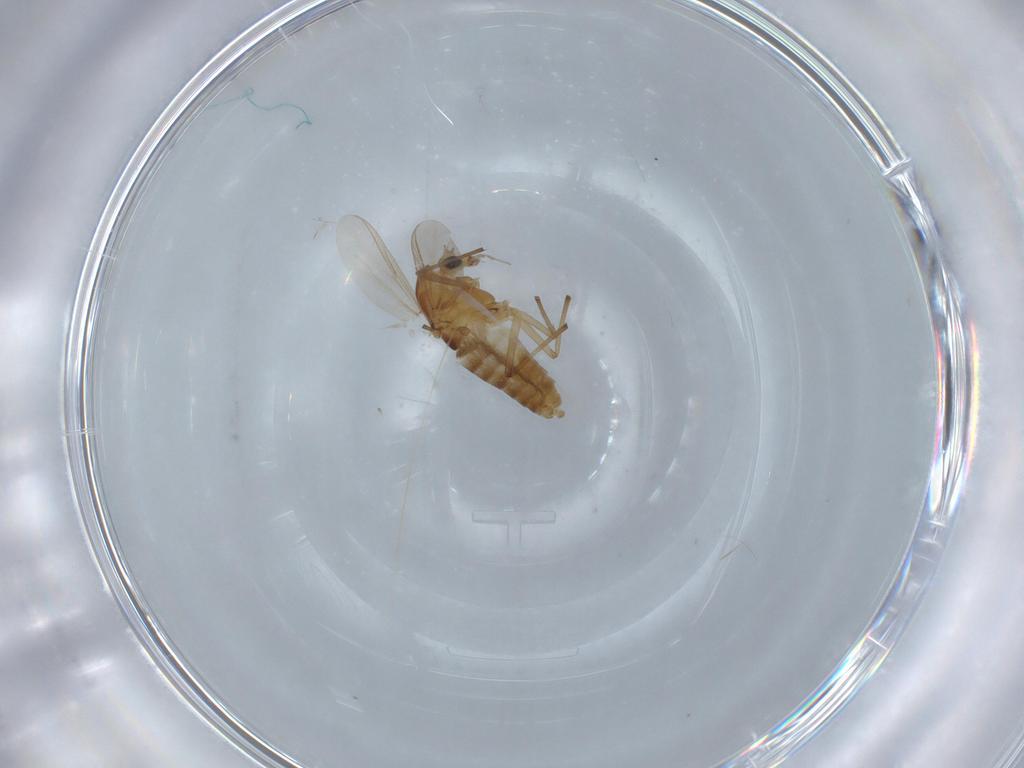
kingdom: Animalia
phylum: Arthropoda
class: Insecta
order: Diptera
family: Chironomidae
